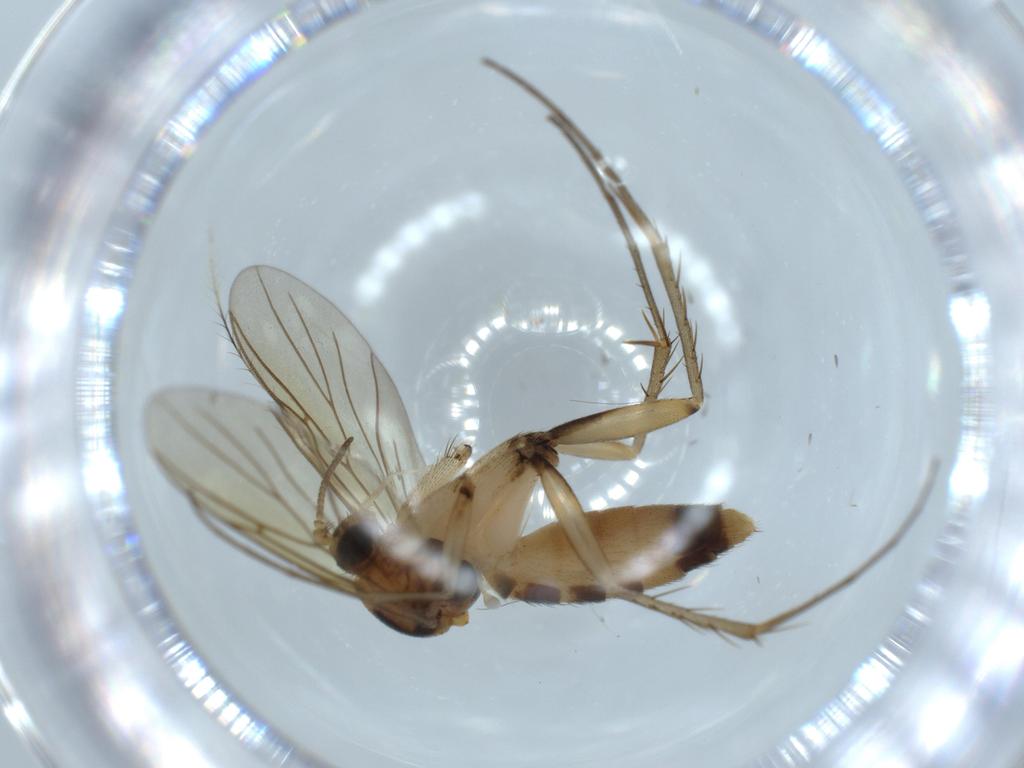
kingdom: Animalia
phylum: Arthropoda
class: Insecta
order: Diptera
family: Mycetophilidae
